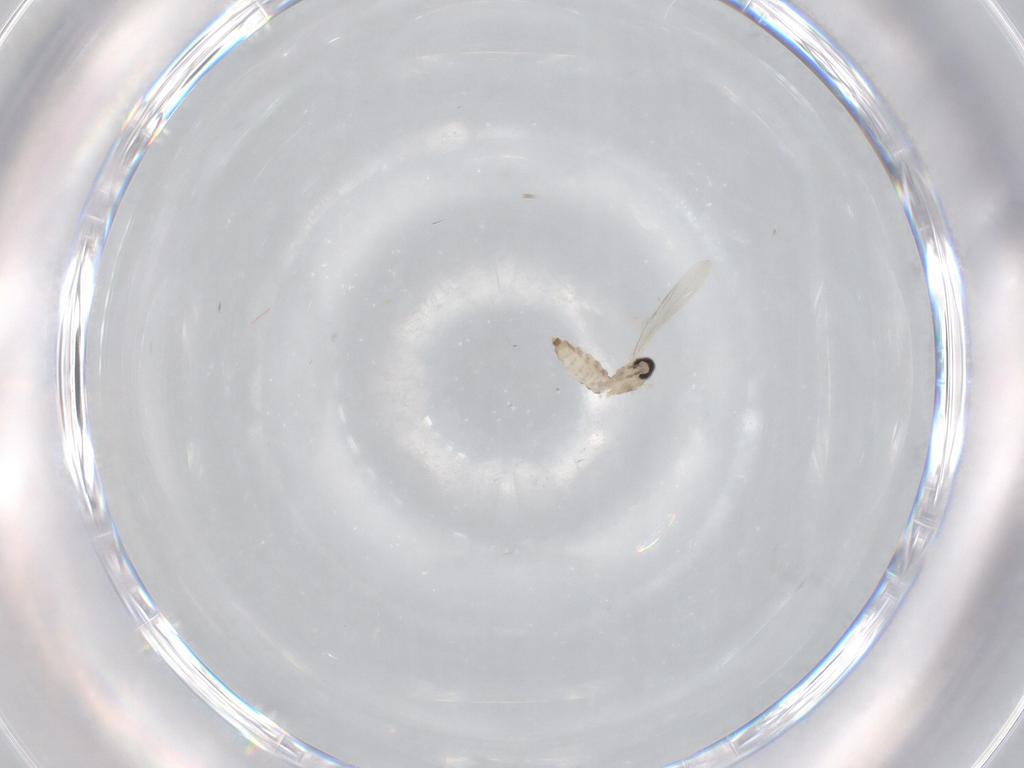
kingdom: Animalia
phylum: Arthropoda
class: Insecta
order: Diptera
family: Cecidomyiidae
